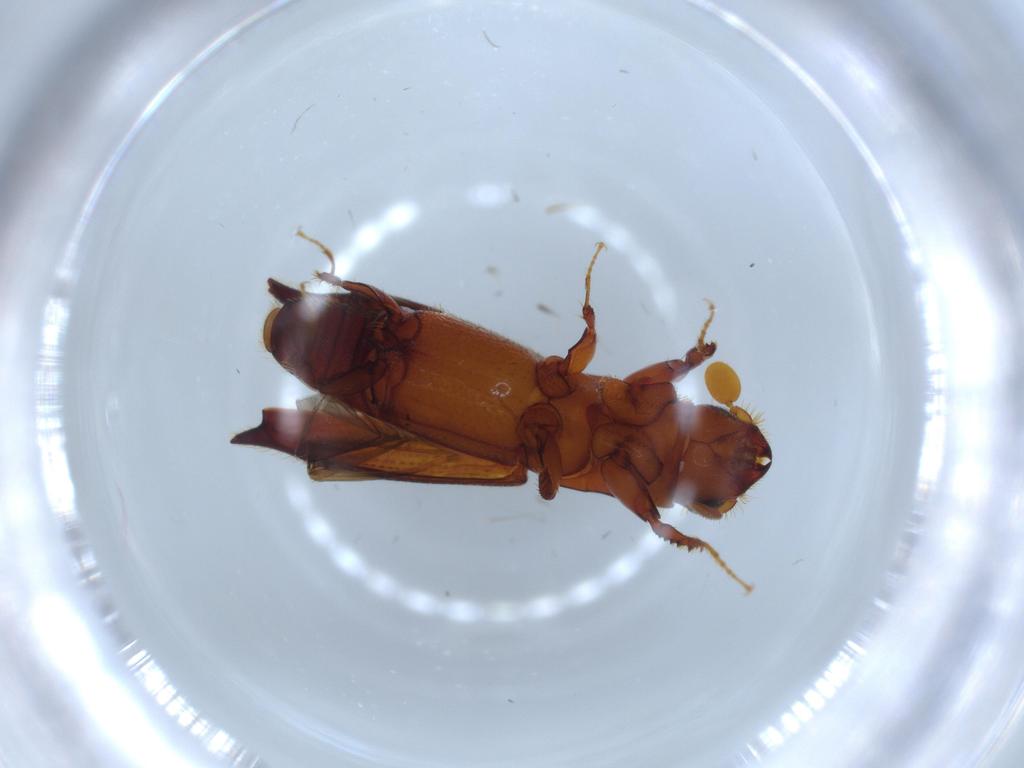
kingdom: Animalia
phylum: Arthropoda
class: Insecta
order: Coleoptera
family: Curculionidae
